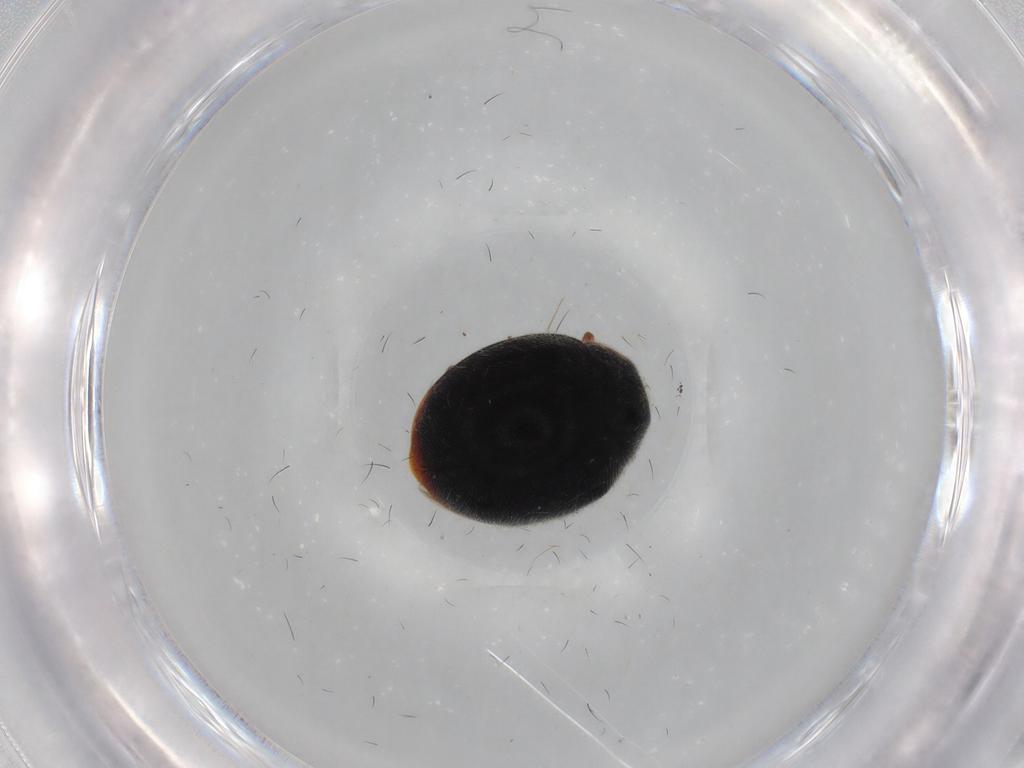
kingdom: Animalia
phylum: Arthropoda
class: Insecta
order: Coleoptera
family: Coccinellidae
